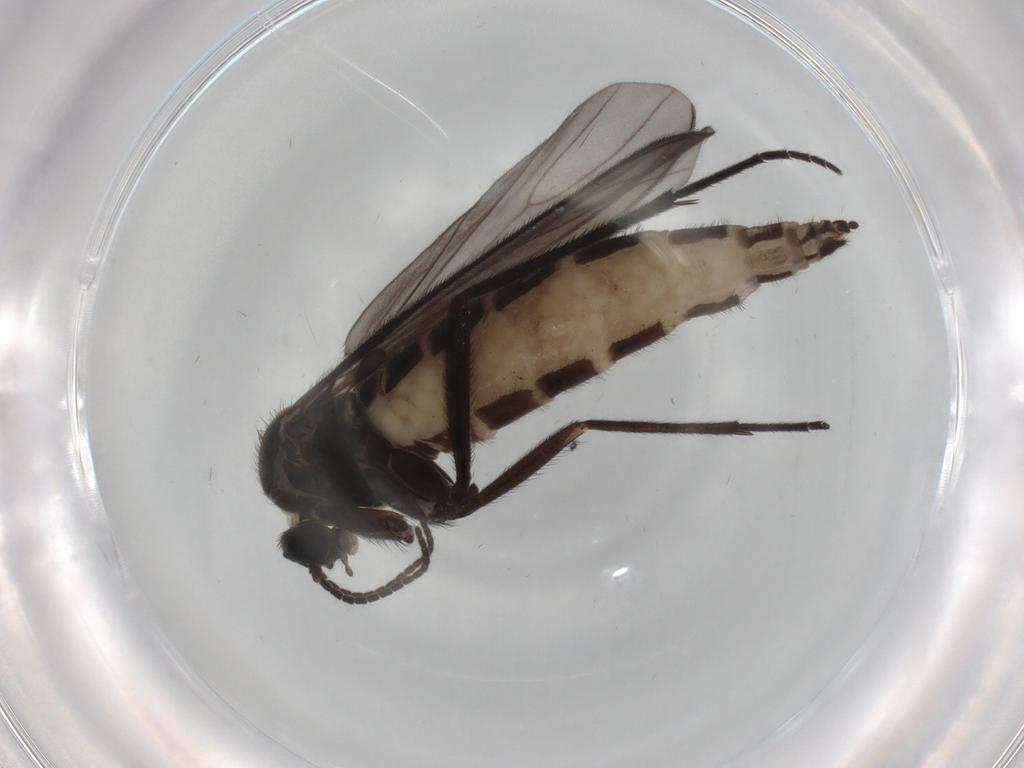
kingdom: Animalia
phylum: Arthropoda
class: Insecta
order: Diptera
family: Sciaridae
